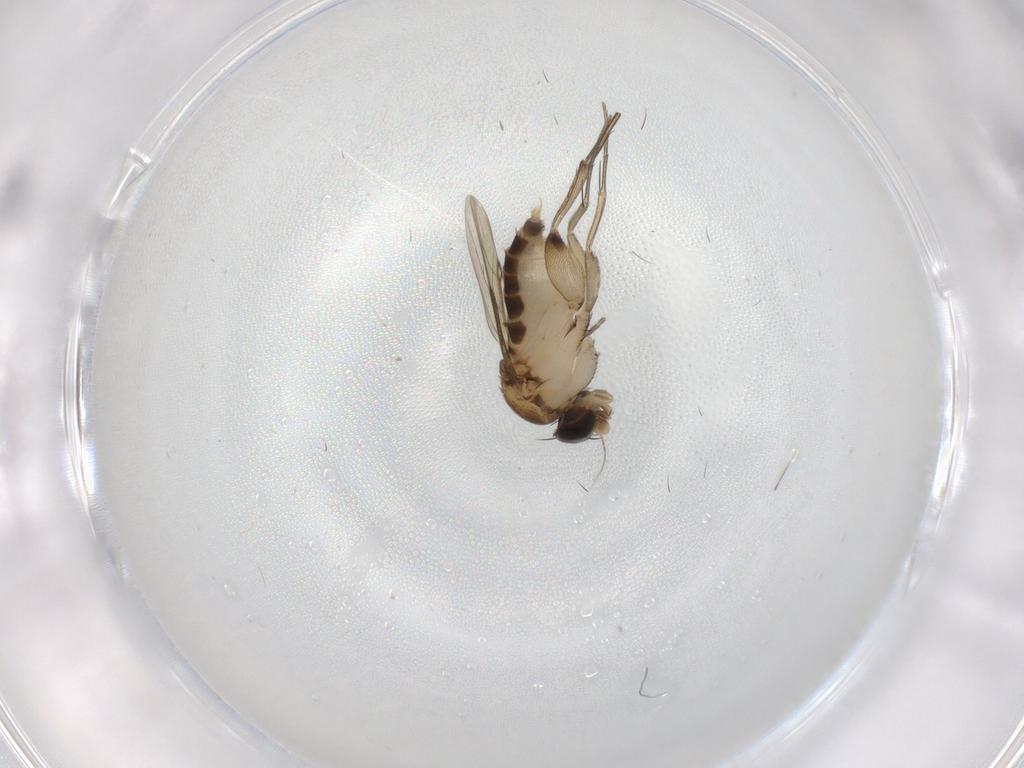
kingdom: Animalia
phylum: Arthropoda
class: Insecta
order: Diptera
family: Phoridae
